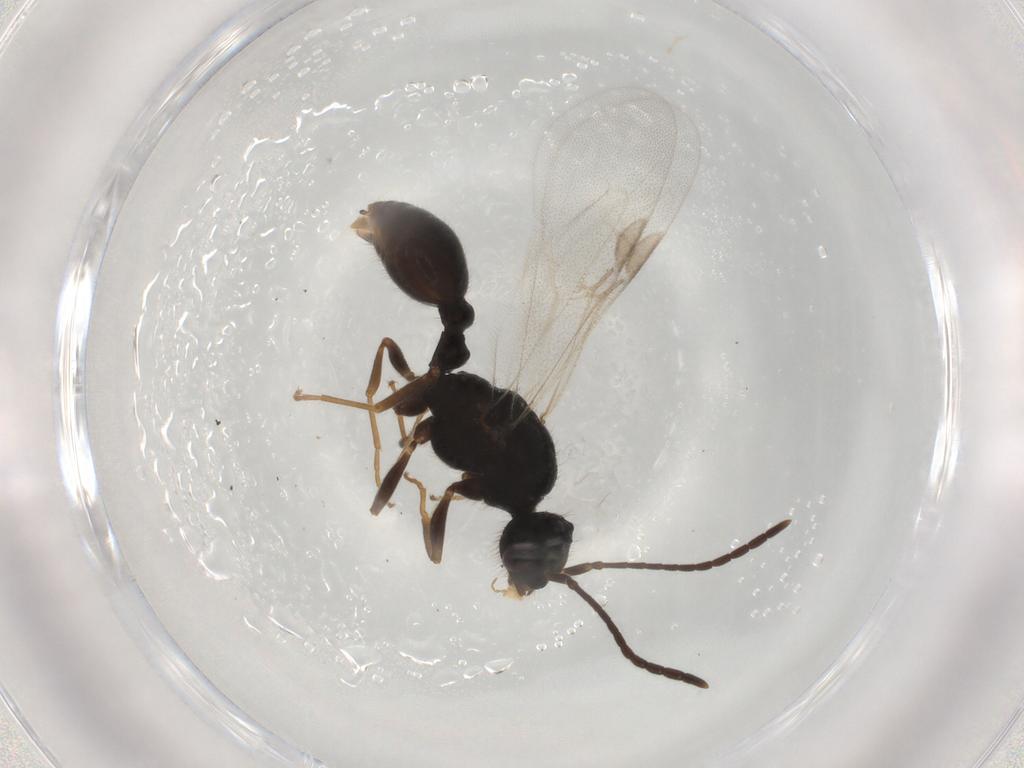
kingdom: Animalia
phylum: Arthropoda
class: Insecta
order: Hymenoptera
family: Formicidae
